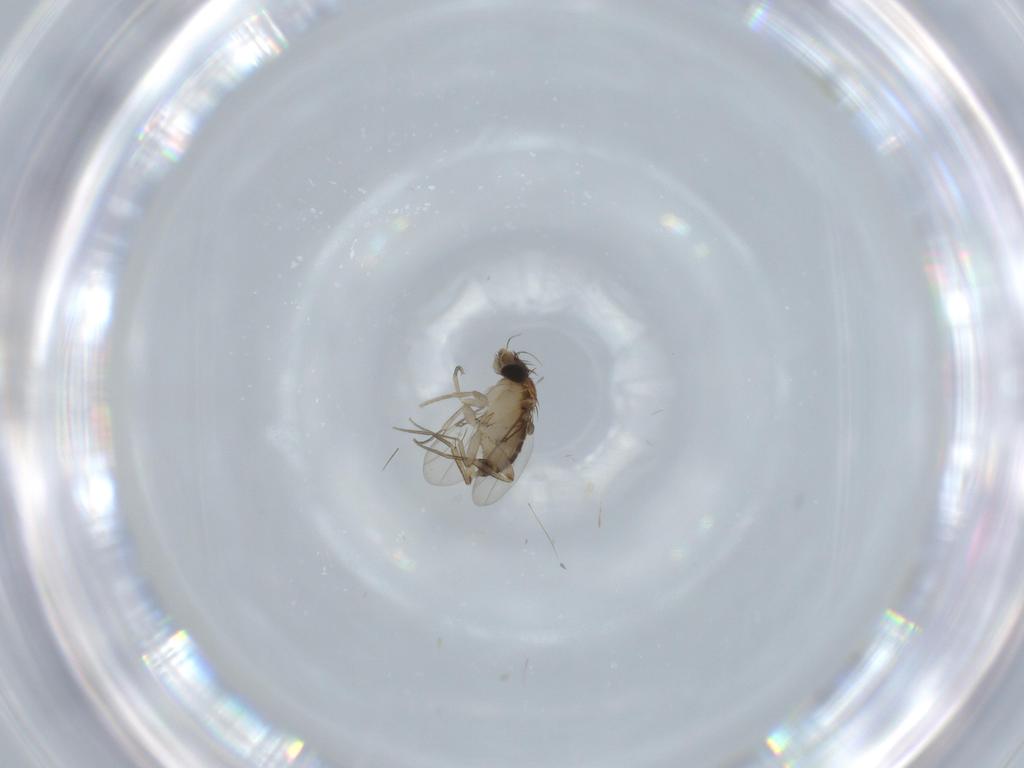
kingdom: Animalia
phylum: Arthropoda
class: Insecta
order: Diptera
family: Phoridae
